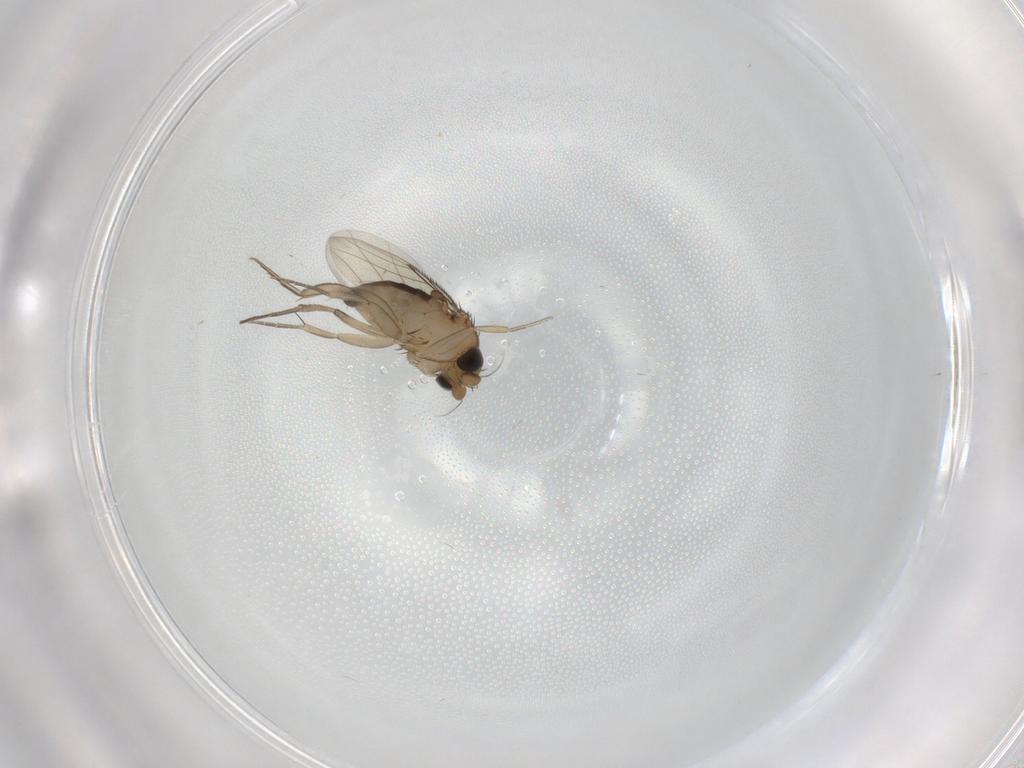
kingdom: Animalia
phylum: Arthropoda
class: Insecta
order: Diptera
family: Phoridae
